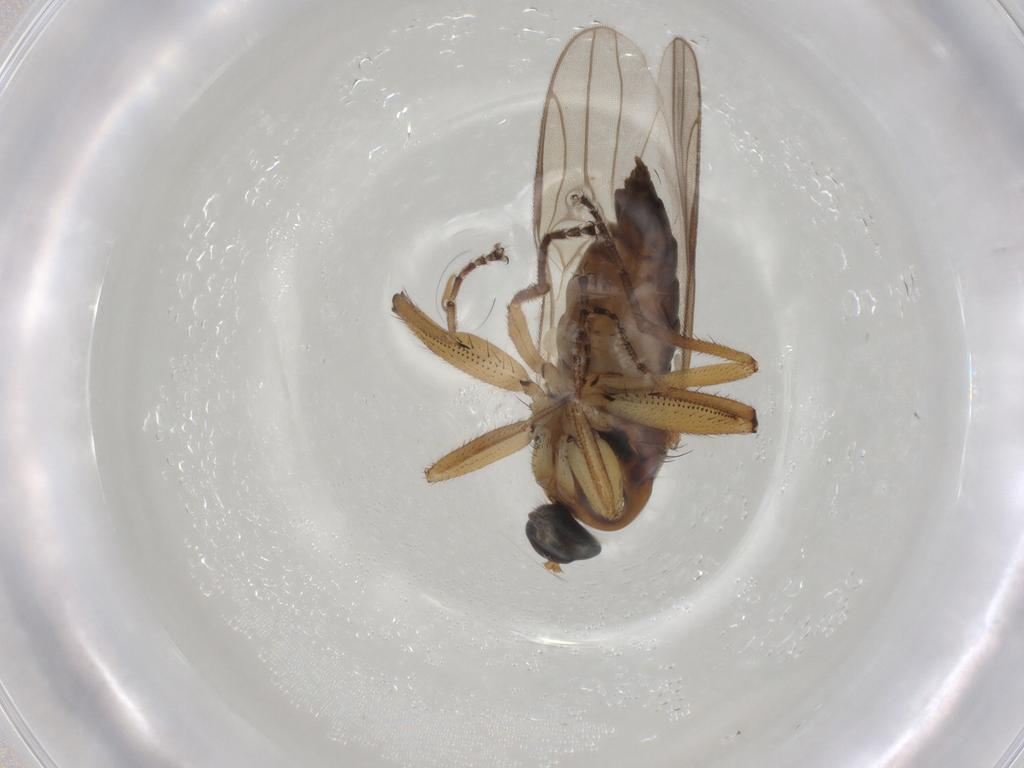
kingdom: Animalia
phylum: Arthropoda
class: Insecta
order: Diptera
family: Hybotidae
